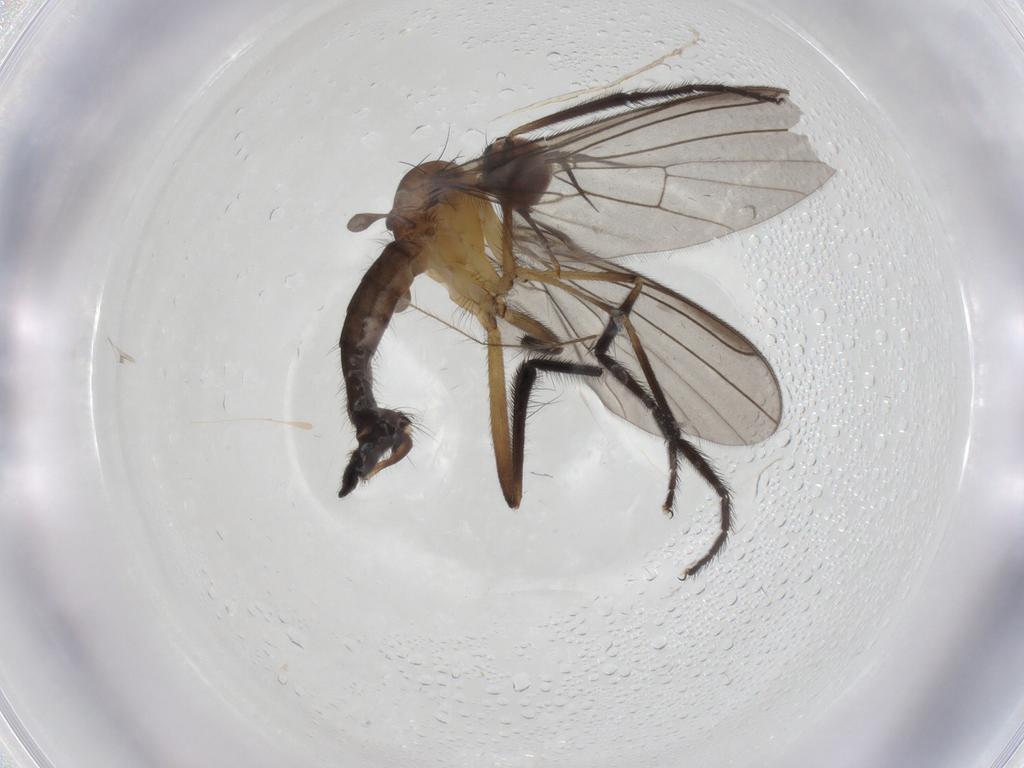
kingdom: Animalia
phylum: Arthropoda
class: Insecta
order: Diptera
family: Empididae
